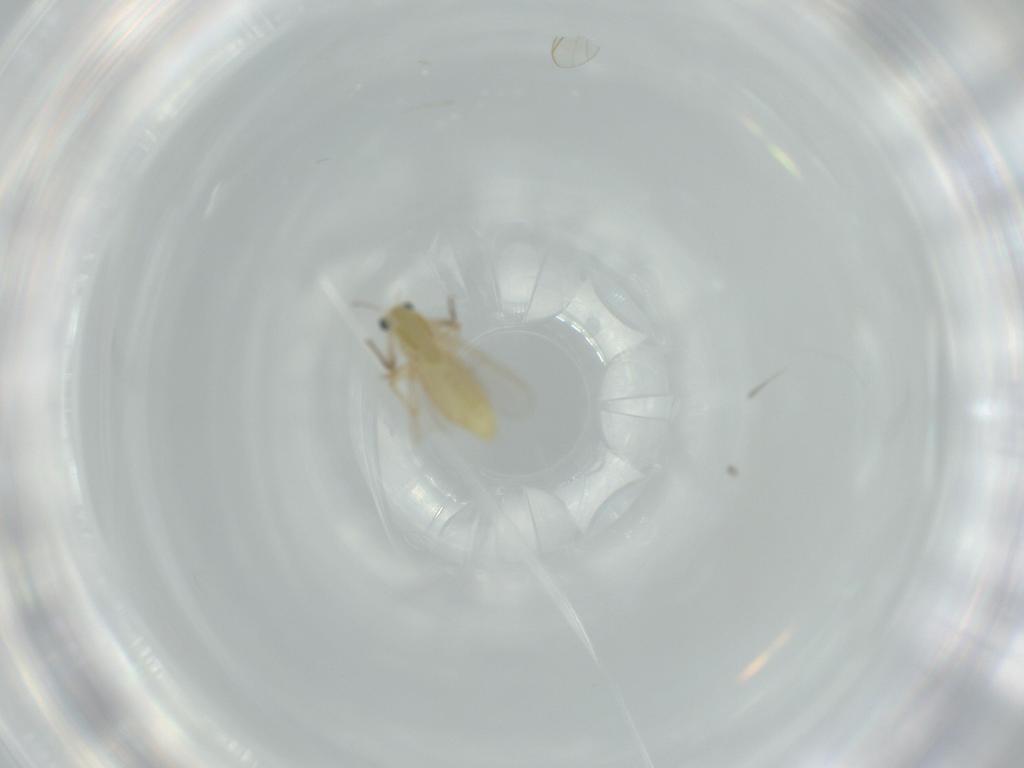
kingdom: Animalia
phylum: Arthropoda
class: Insecta
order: Diptera
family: Chironomidae
